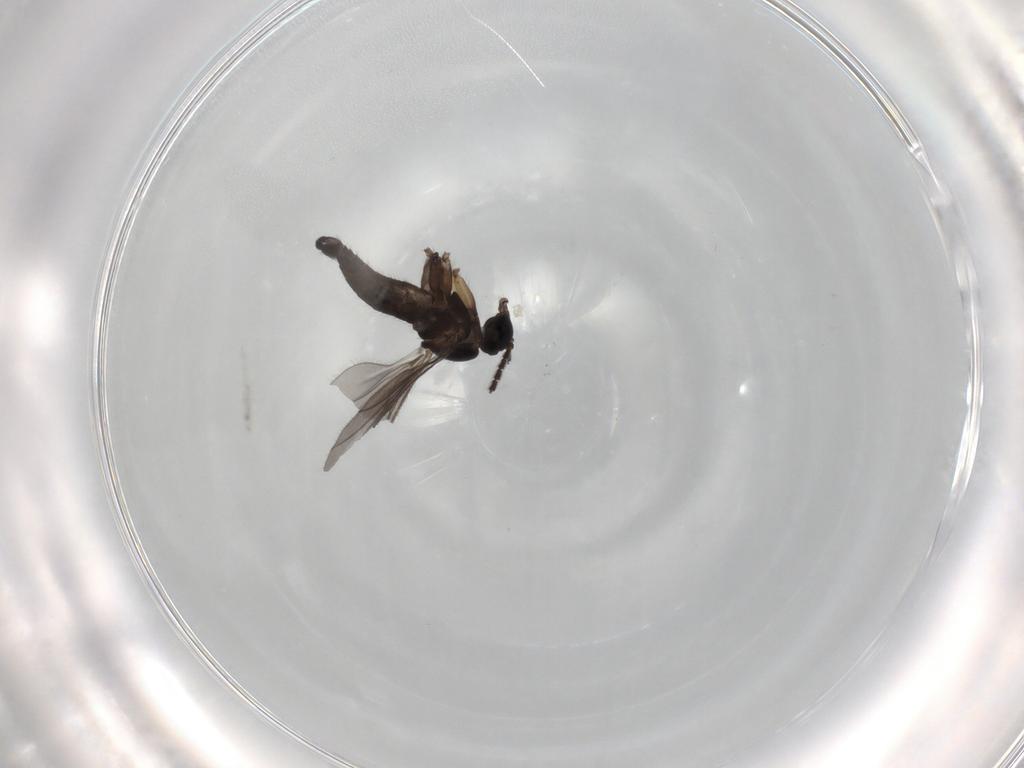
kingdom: Animalia
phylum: Arthropoda
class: Insecta
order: Diptera
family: Sciaridae
